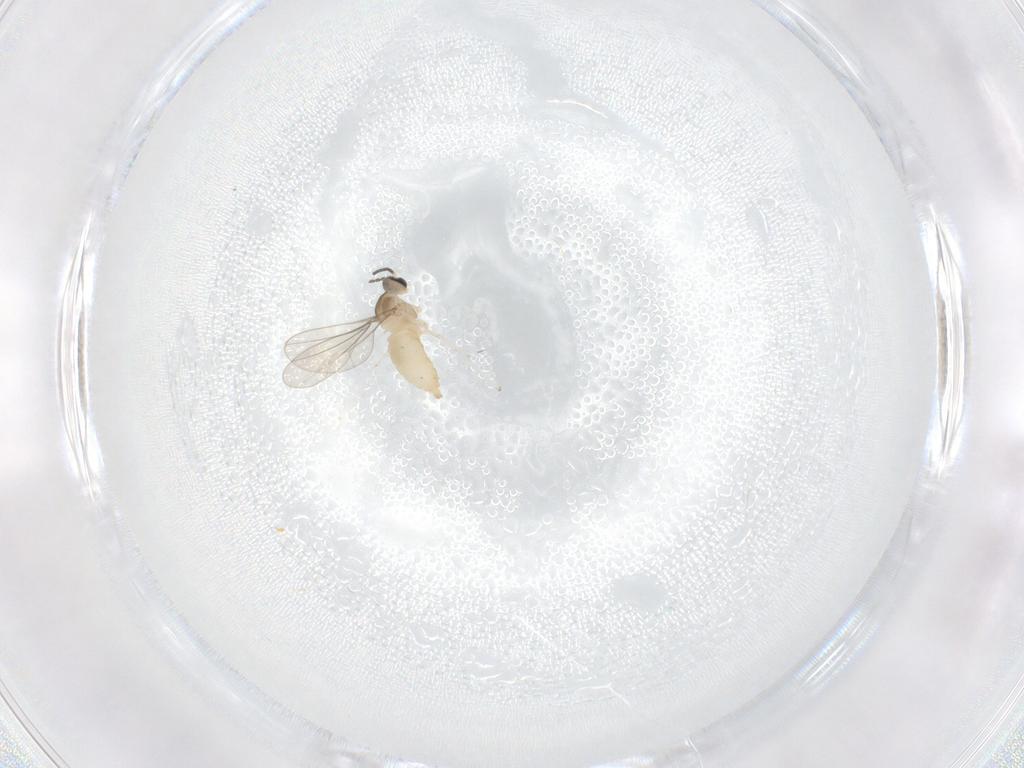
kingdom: Animalia
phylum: Arthropoda
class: Insecta
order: Diptera
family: Cecidomyiidae
